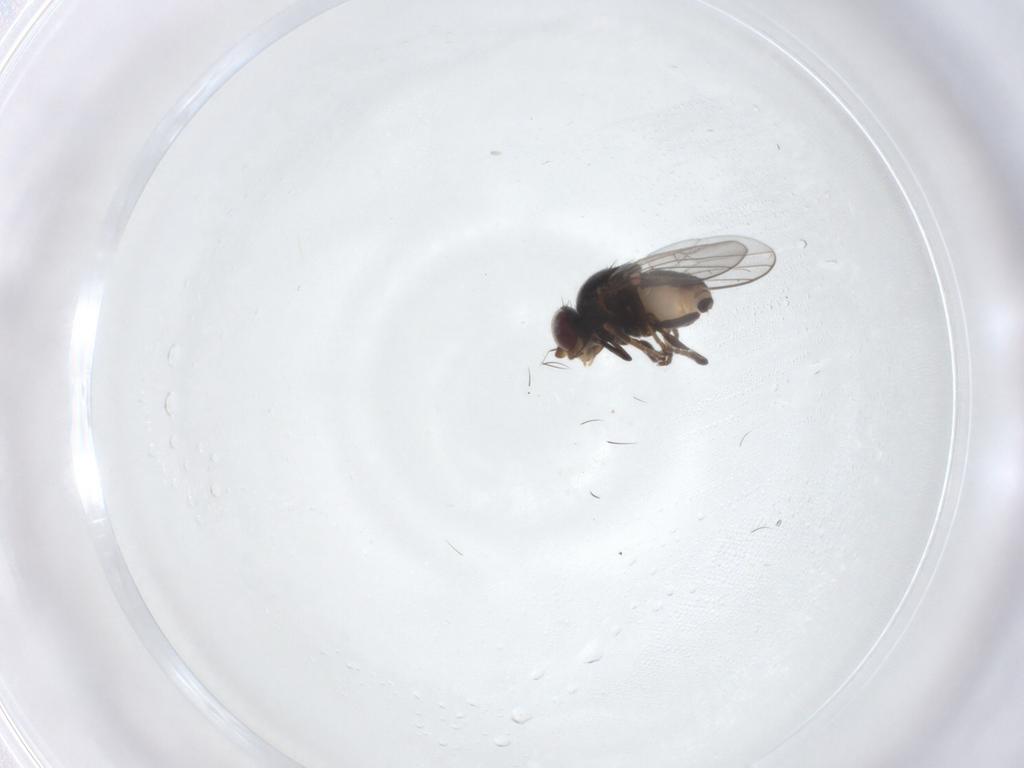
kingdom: Animalia
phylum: Arthropoda
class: Insecta
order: Diptera
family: Chloropidae
